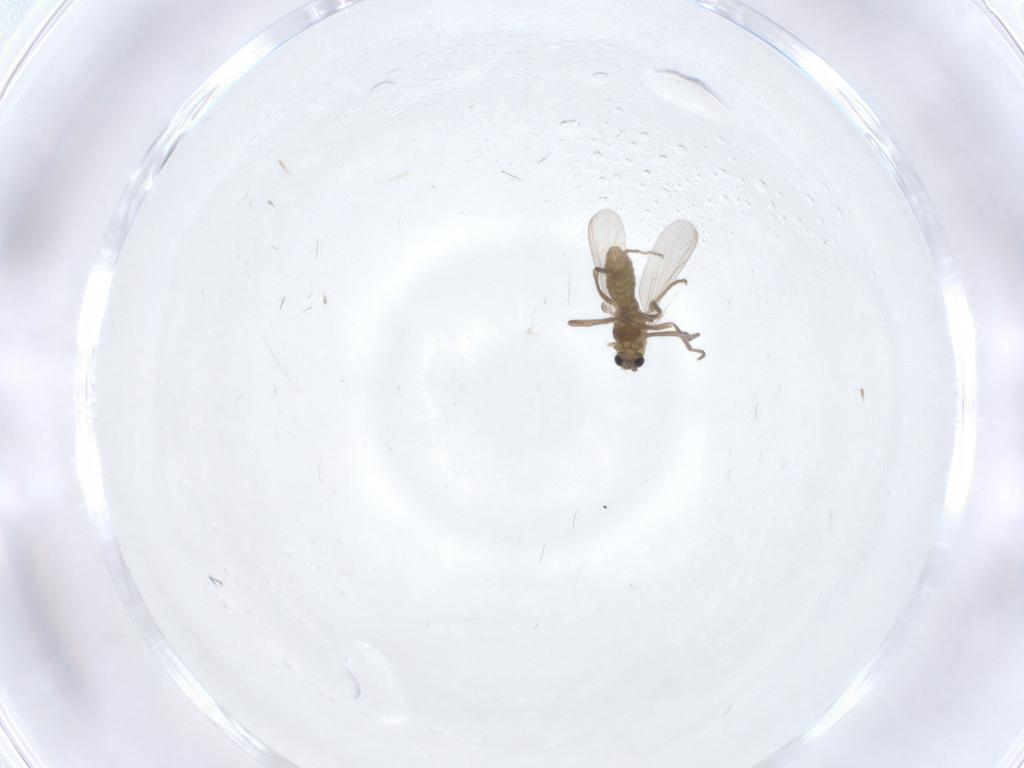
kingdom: Animalia
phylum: Arthropoda
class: Insecta
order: Diptera
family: Chironomidae
